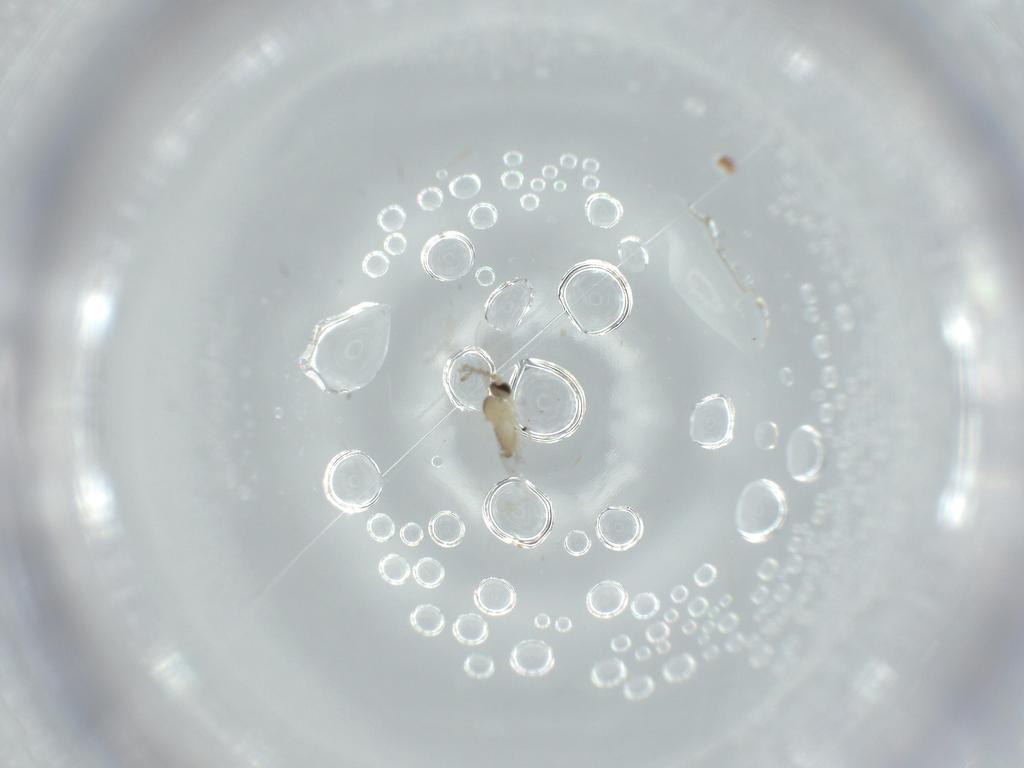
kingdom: Animalia
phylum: Arthropoda
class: Insecta
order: Diptera
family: Cecidomyiidae
